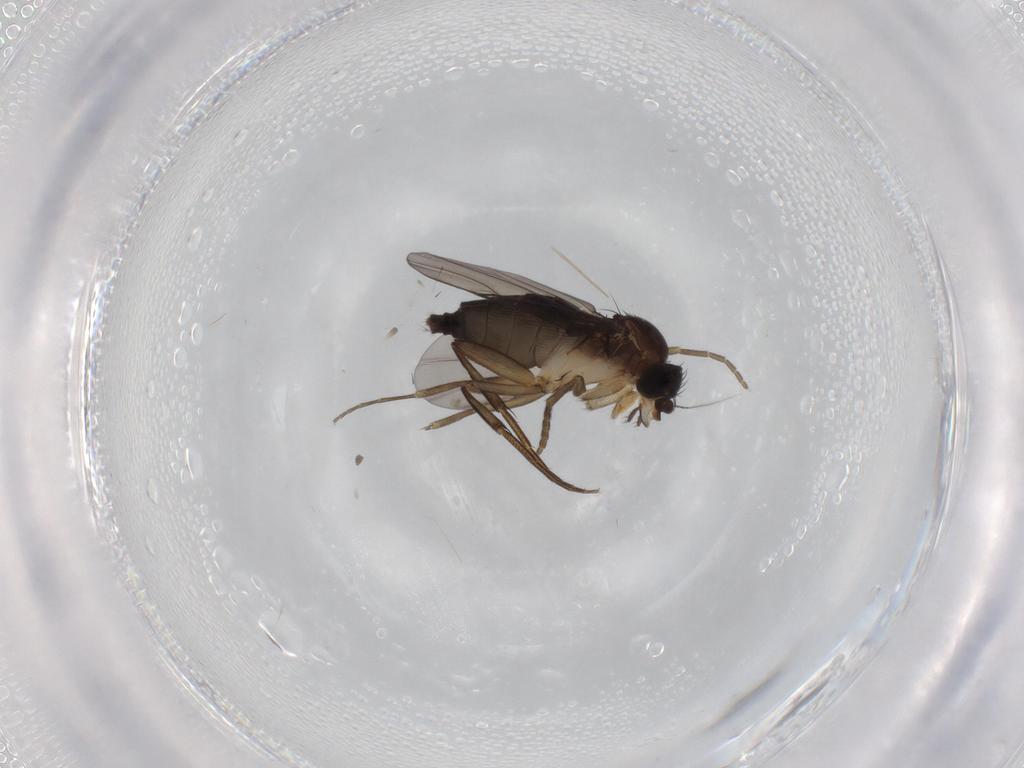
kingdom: Animalia
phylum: Arthropoda
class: Insecta
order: Diptera
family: Phoridae
